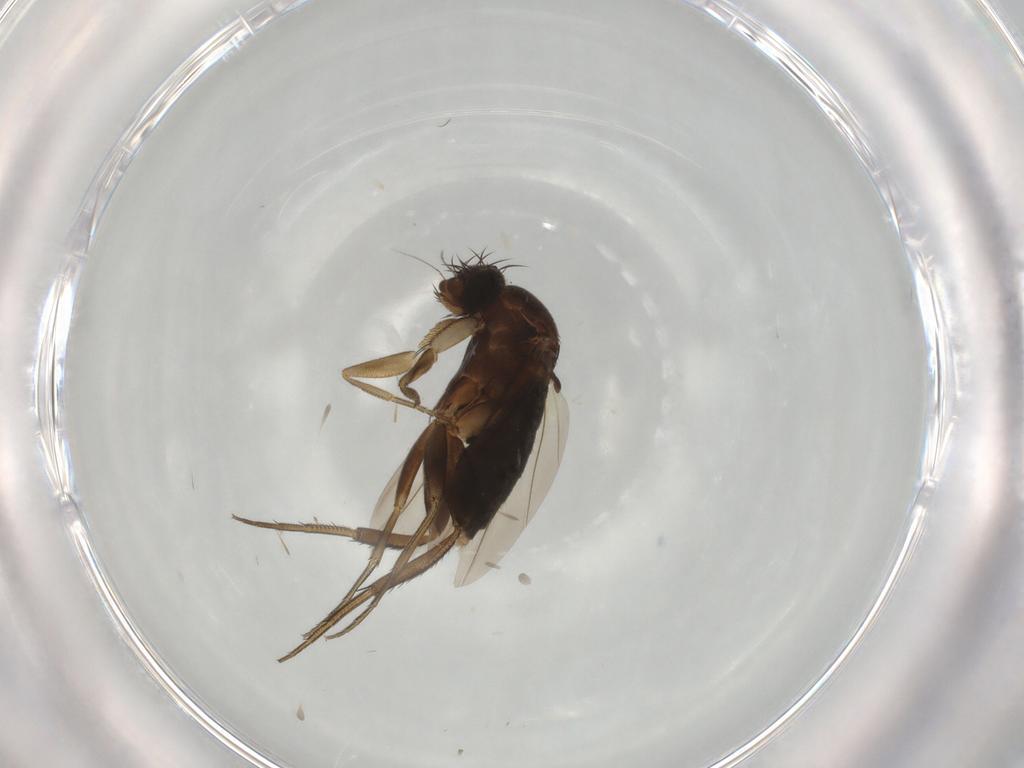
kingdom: Animalia
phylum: Arthropoda
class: Insecta
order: Diptera
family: Phoridae
